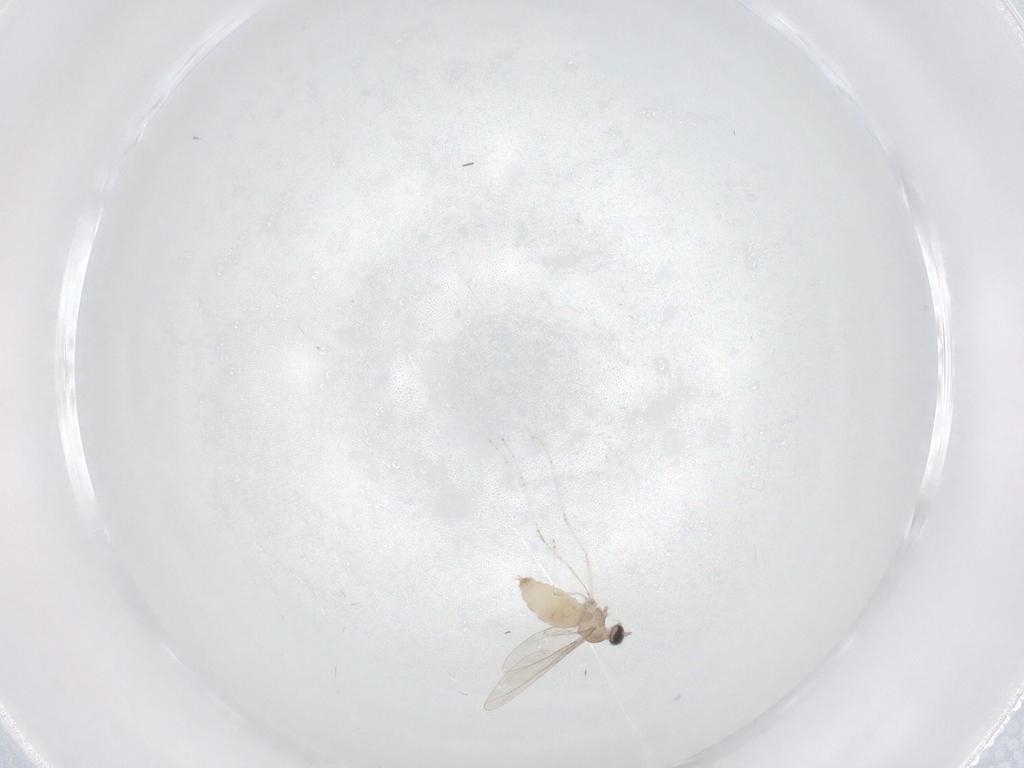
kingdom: Animalia
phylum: Arthropoda
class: Insecta
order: Diptera
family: Cecidomyiidae
